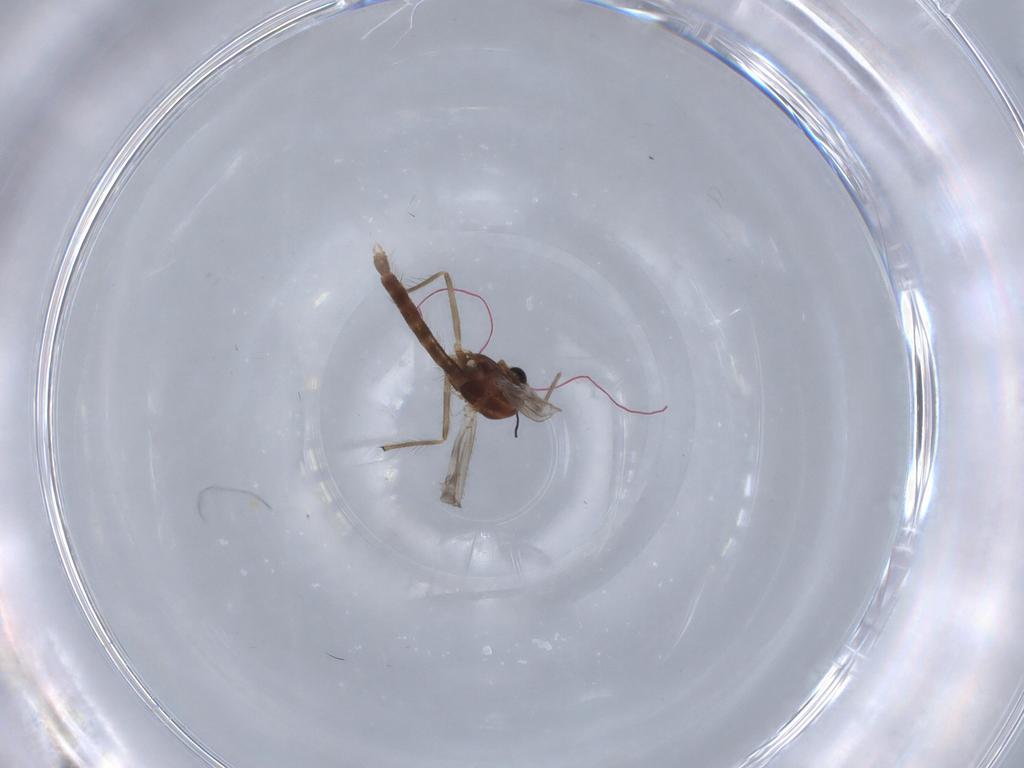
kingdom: Animalia
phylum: Arthropoda
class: Insecta
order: Diptera
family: Chironomidae
